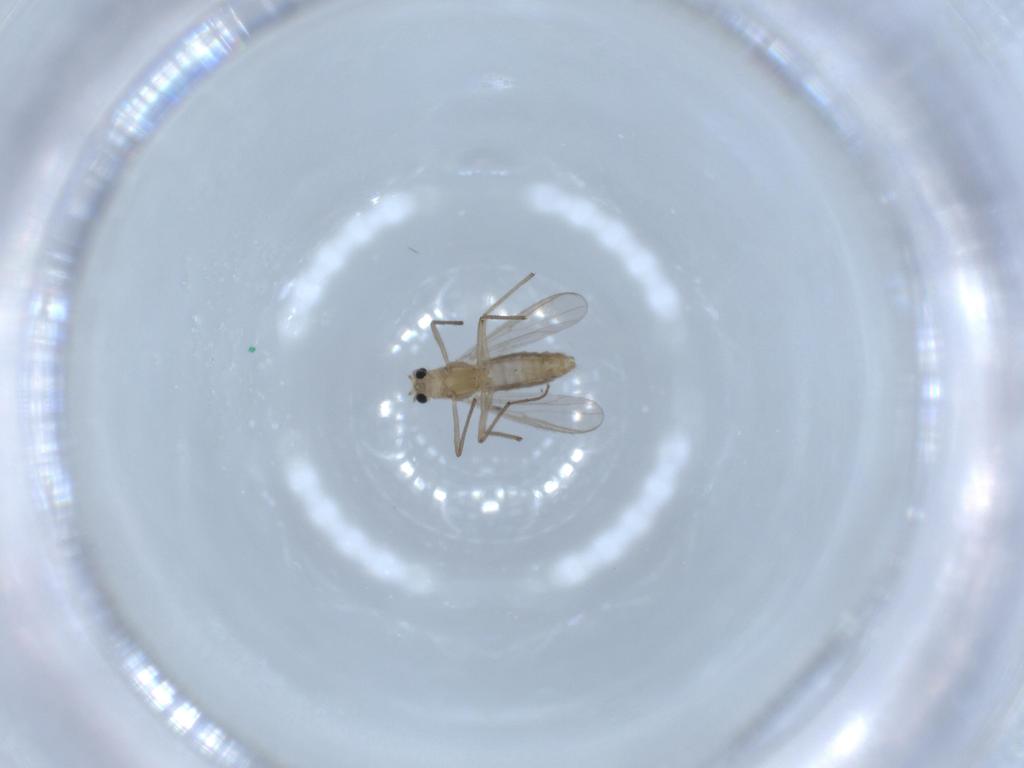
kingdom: Animalia
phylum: Arthropoda
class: Insecta
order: Diptera
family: Chironomidae
